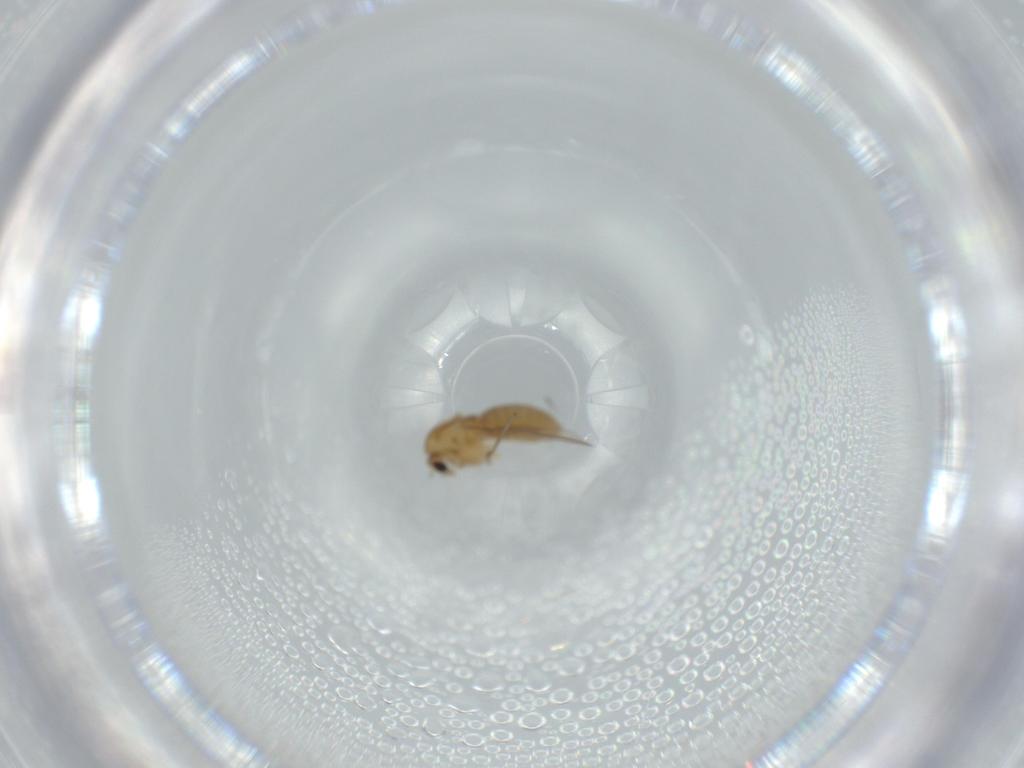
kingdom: Animalia
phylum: Arthropoda
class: Insecta
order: Diptera
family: Chironomidae
